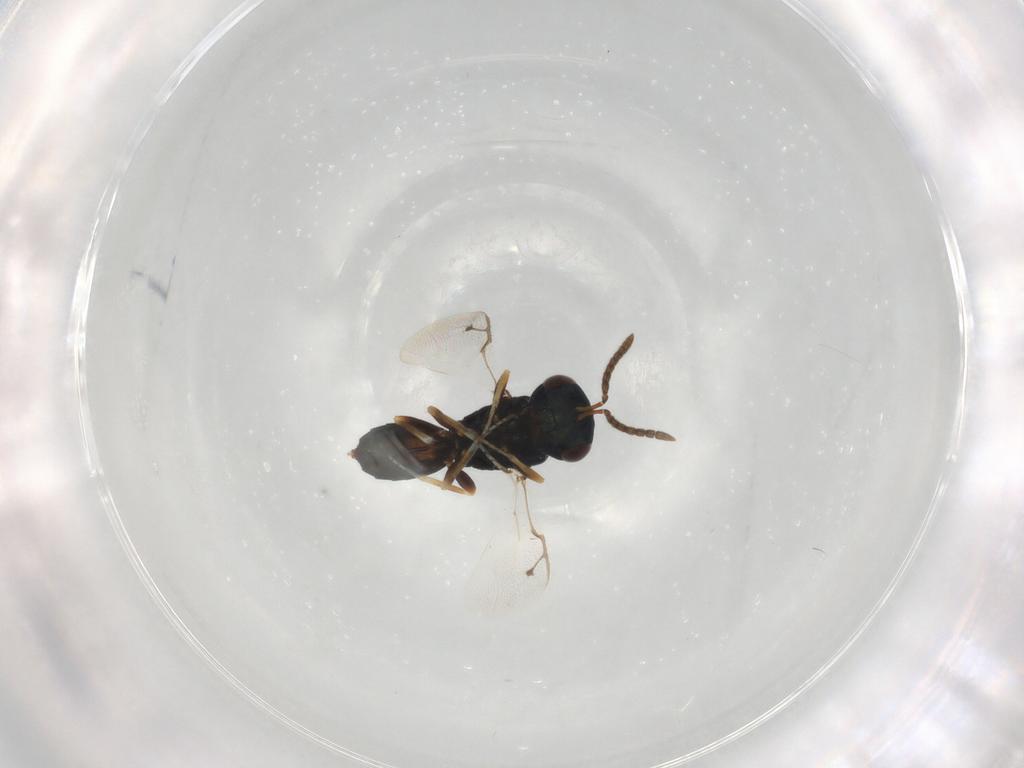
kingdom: Animalia
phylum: Arthropoda
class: Insecta
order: Hymenoptera
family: Pteromalidae
